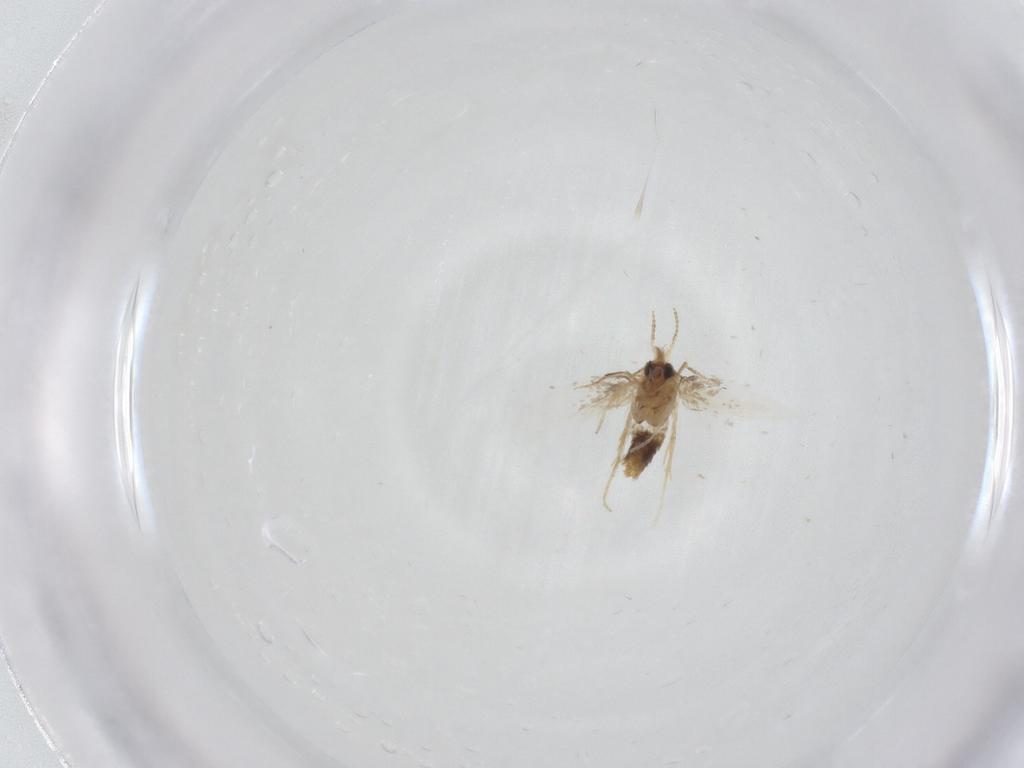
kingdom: Animalia
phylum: Arthropoda
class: Insecta
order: Lepidoptera
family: Nepticulidae
